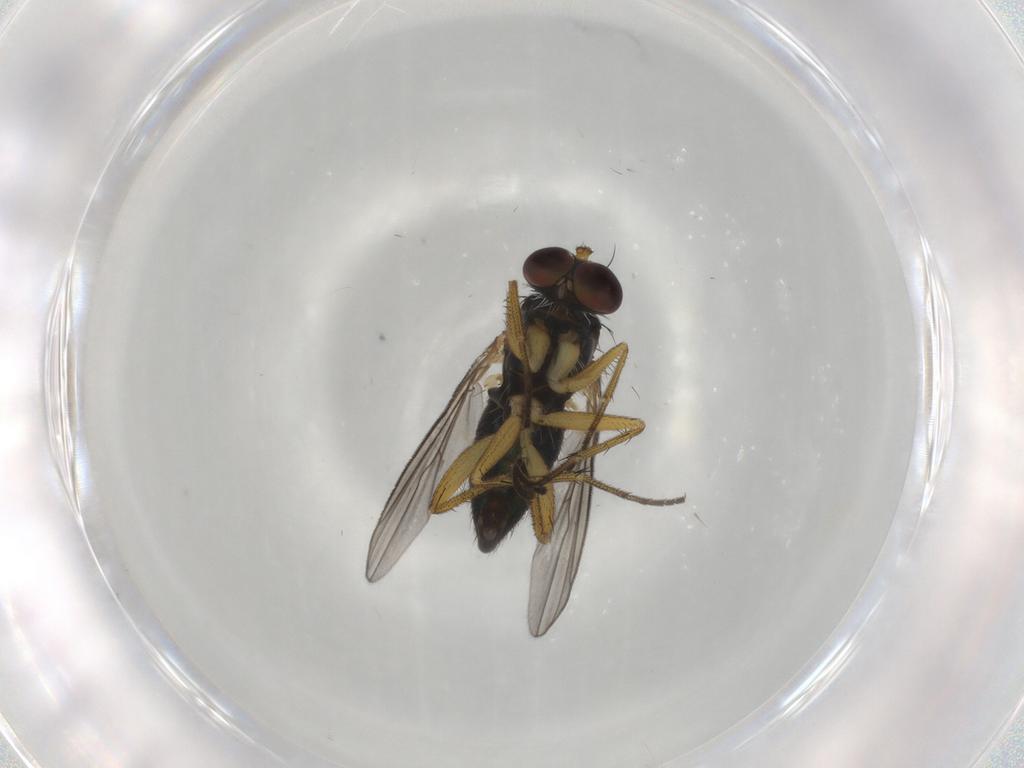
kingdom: Animalia
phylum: Arthropoda
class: Insecta
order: Diptera
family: Dolichopodidae
